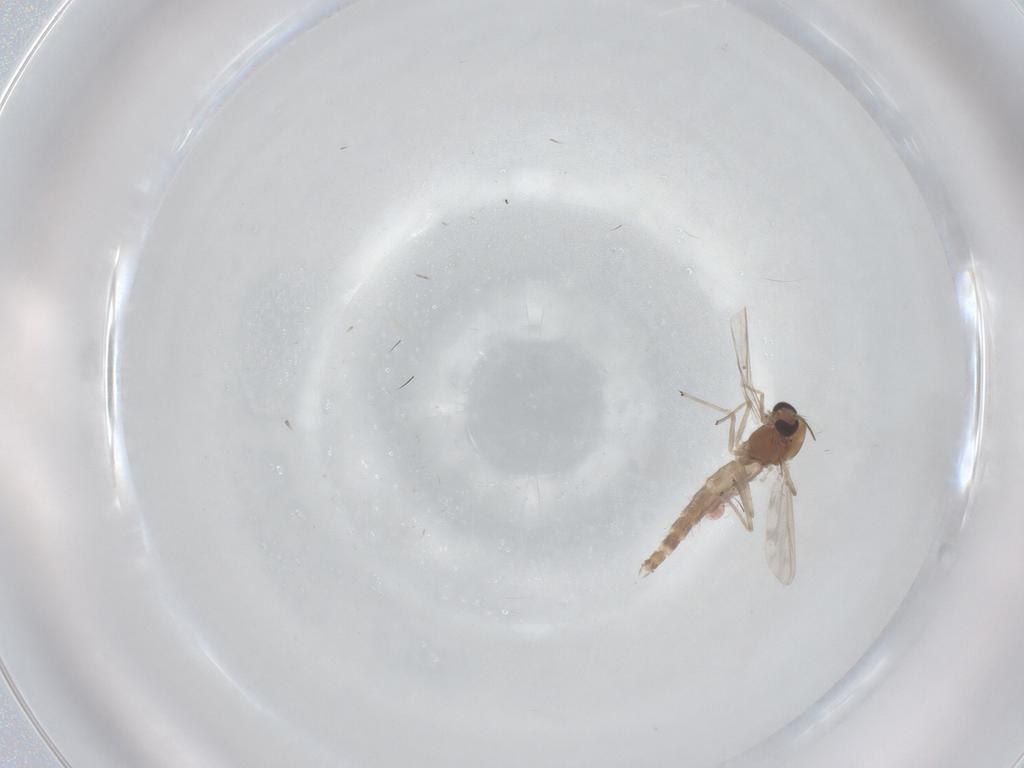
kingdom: Animalia
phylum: Arthropoda
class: Insecta
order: Diptera
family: Chironomidae
